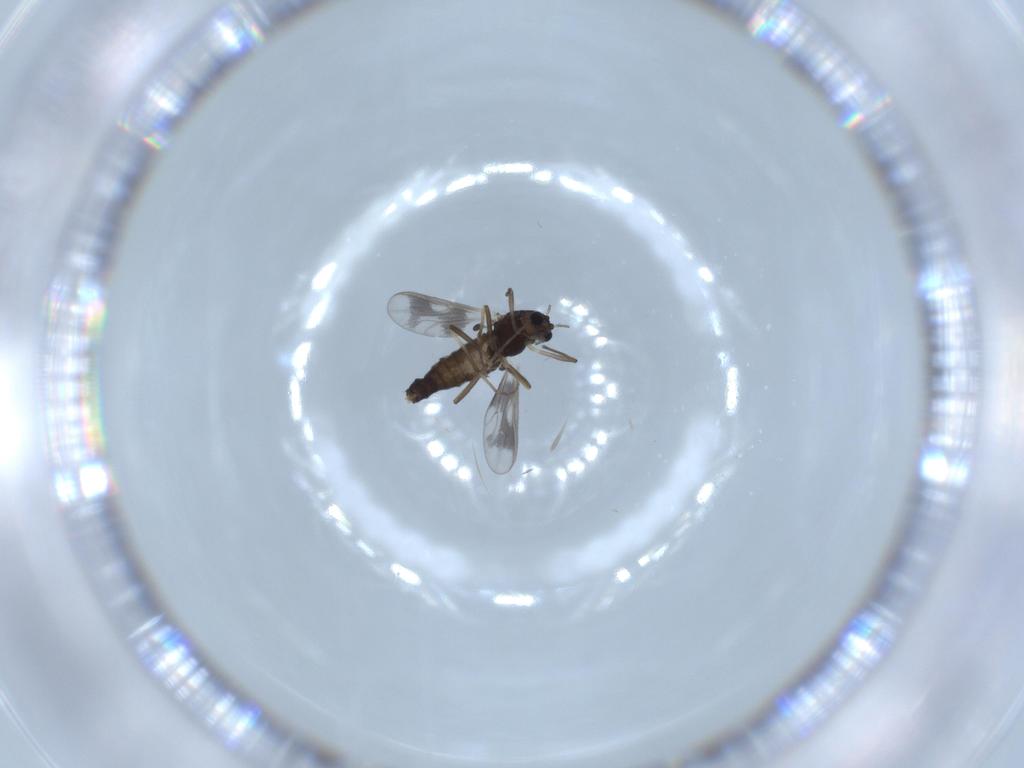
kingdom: Animalia
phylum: Arthropoda
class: Insecta
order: Diptera
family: Chironomidae
